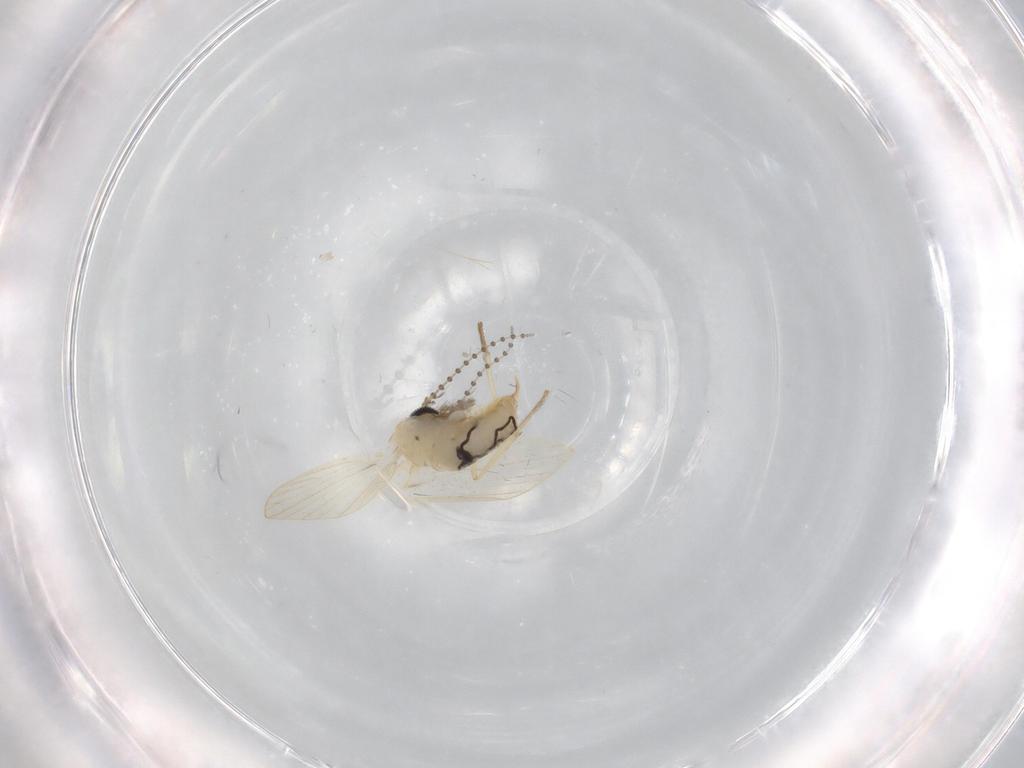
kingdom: Animalia
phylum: Arthropoda
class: Insecta
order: Diptera
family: Psychodidae
